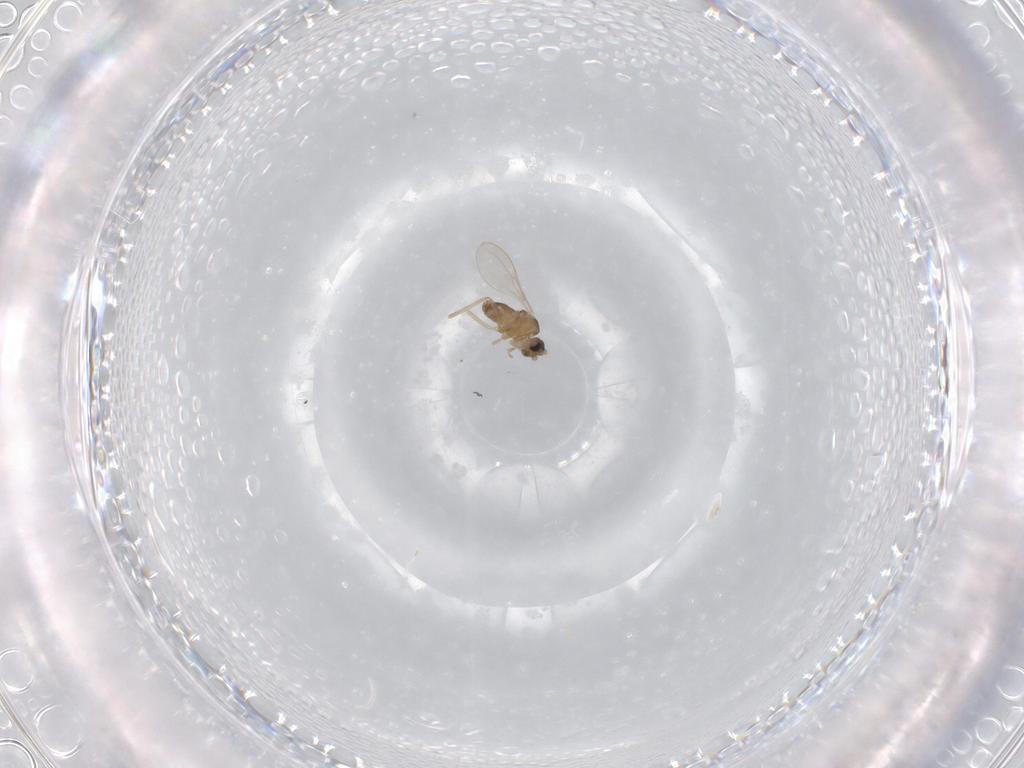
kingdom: Animalia
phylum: Arthropoda
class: Insecta
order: Diptera
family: Cecidomyiidae
